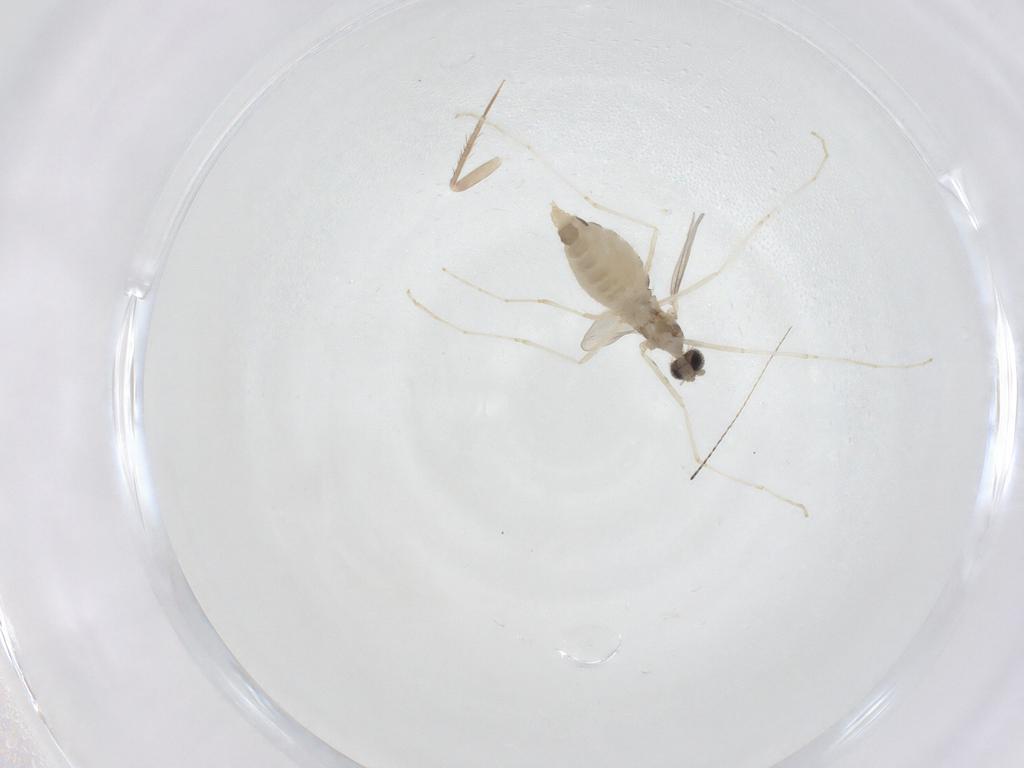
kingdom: Animalia
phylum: Arthropoda
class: Insecta
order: Diptera
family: Cecidomyiidae
